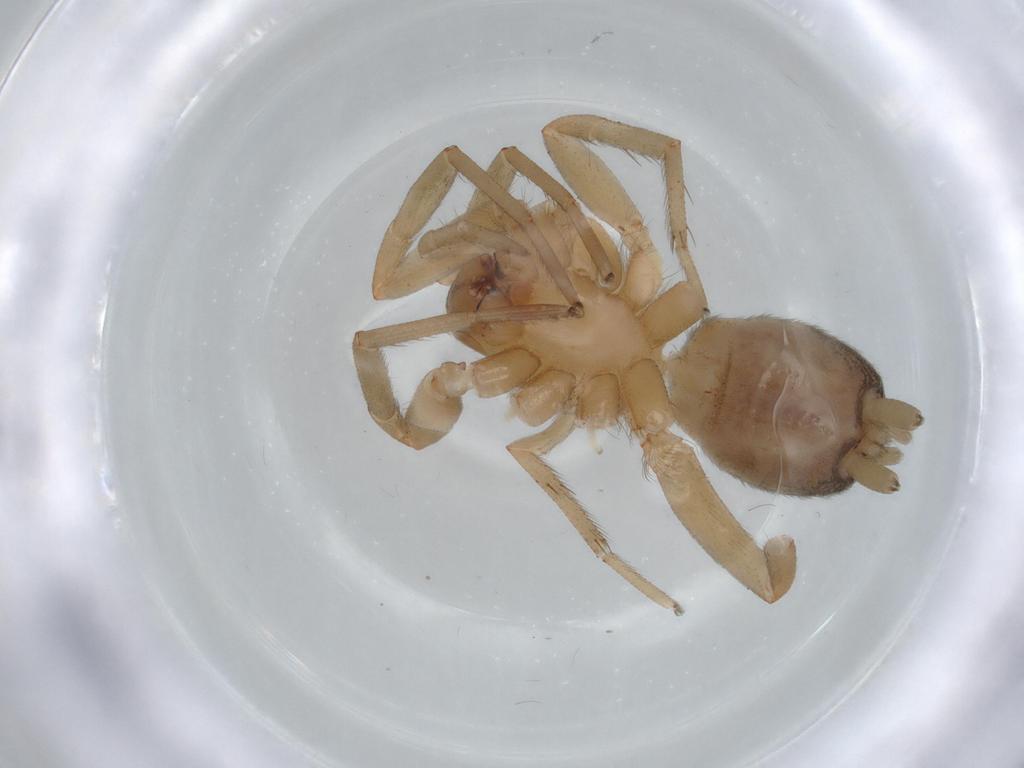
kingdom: Animalia
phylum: Arthropoda
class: Arachnida
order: Araneae
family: Gnaphosidae
